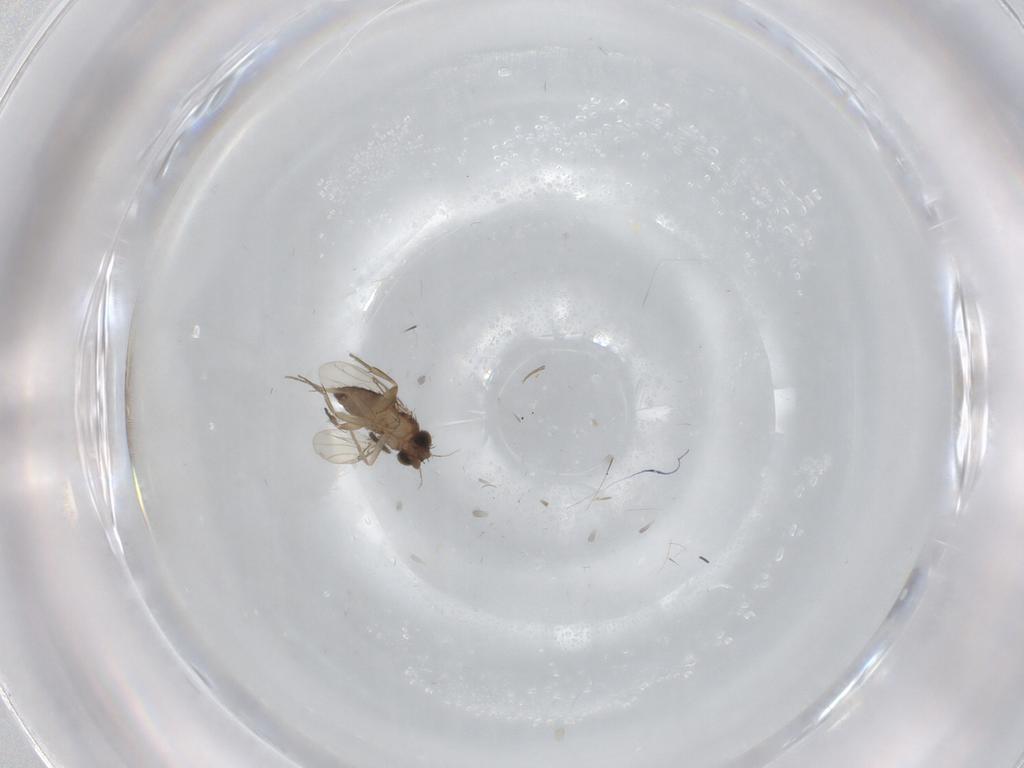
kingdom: Animalia
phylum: Arthropoda
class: Insecta
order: Diptera
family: Phoridae
